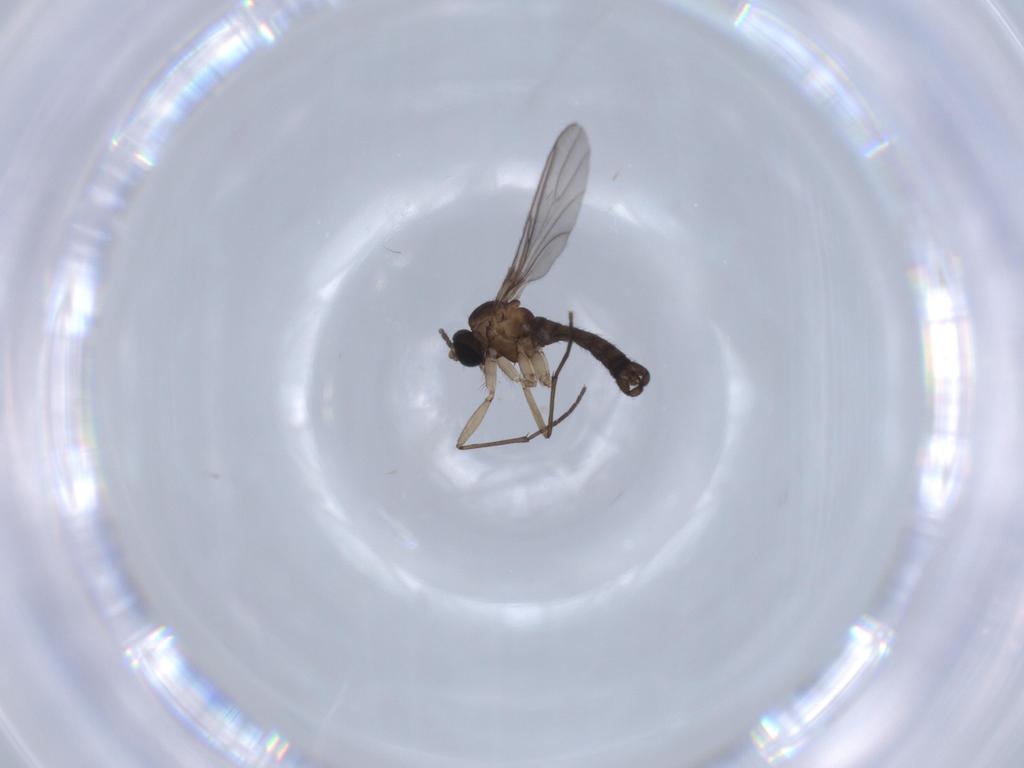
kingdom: Animalia
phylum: Arthropoda
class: Insecta
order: Diptera
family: Sciaridae
